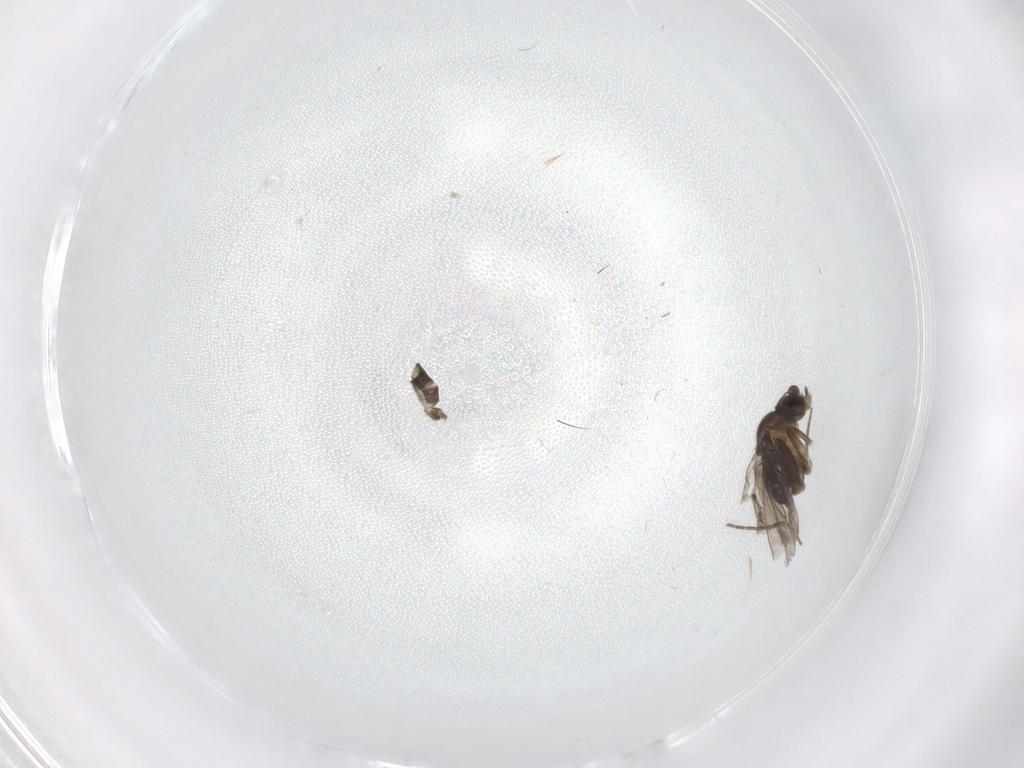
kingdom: Animalia
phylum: Arthropoda
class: Insecta
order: Diptera
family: Phoridae
